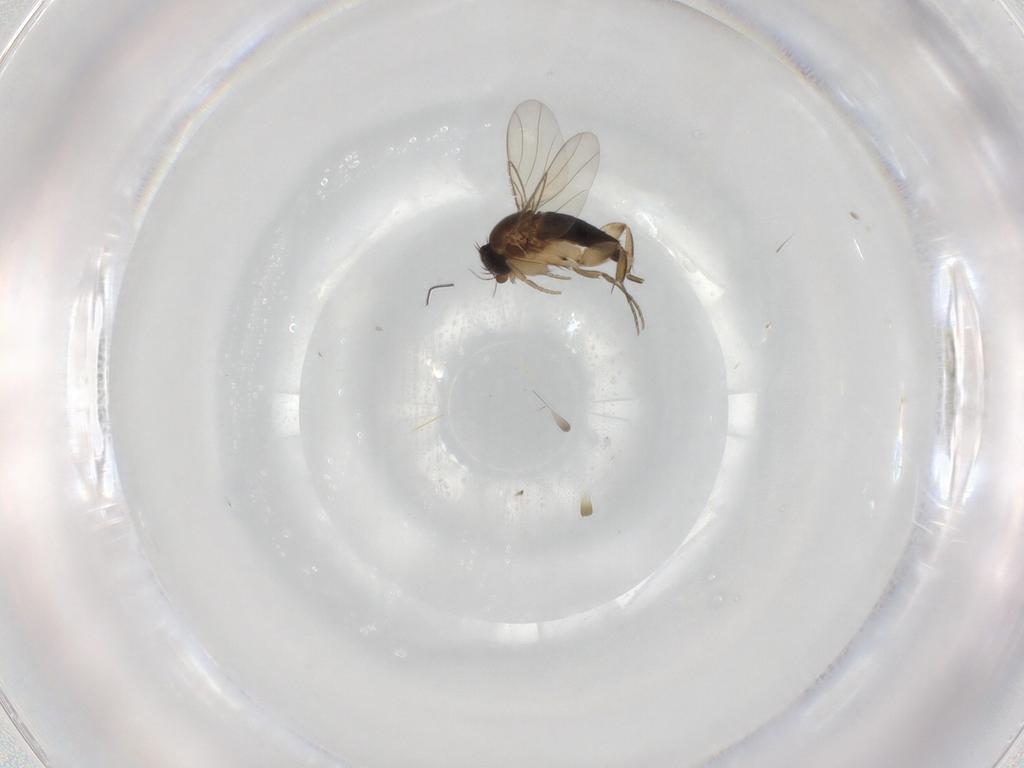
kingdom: Animalia
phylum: Arthropoda
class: Insecta
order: Diptera
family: Phoridae
